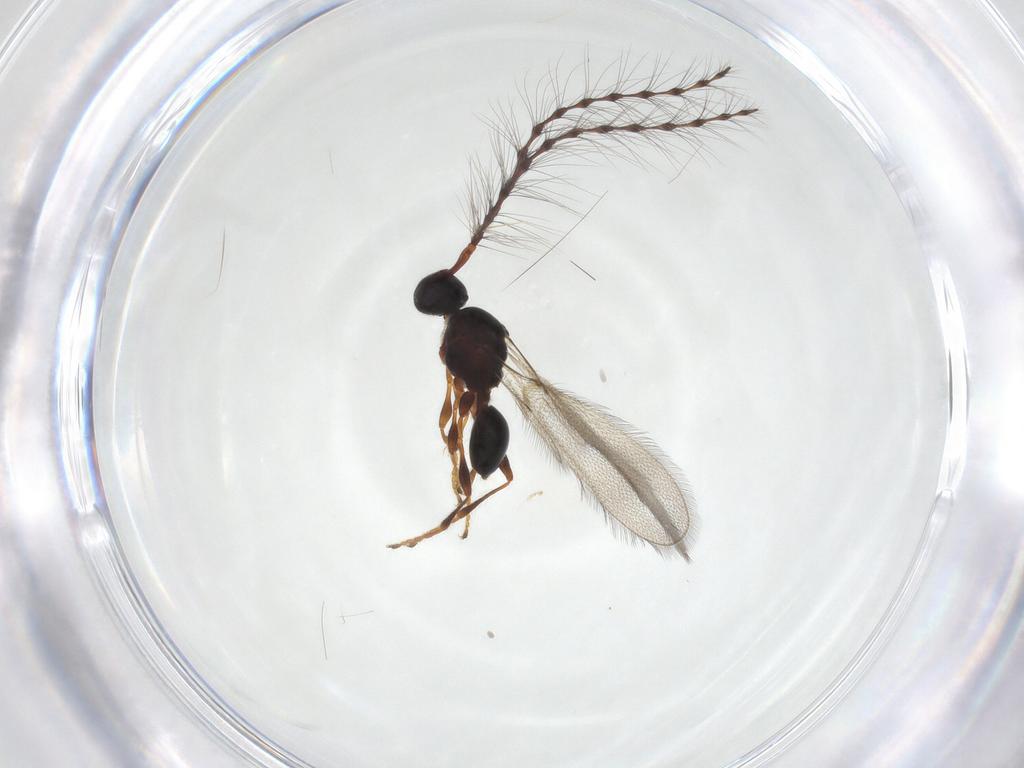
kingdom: Animalia
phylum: Arthropoda
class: Insecta
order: Hymenoptera
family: Diapriidae
